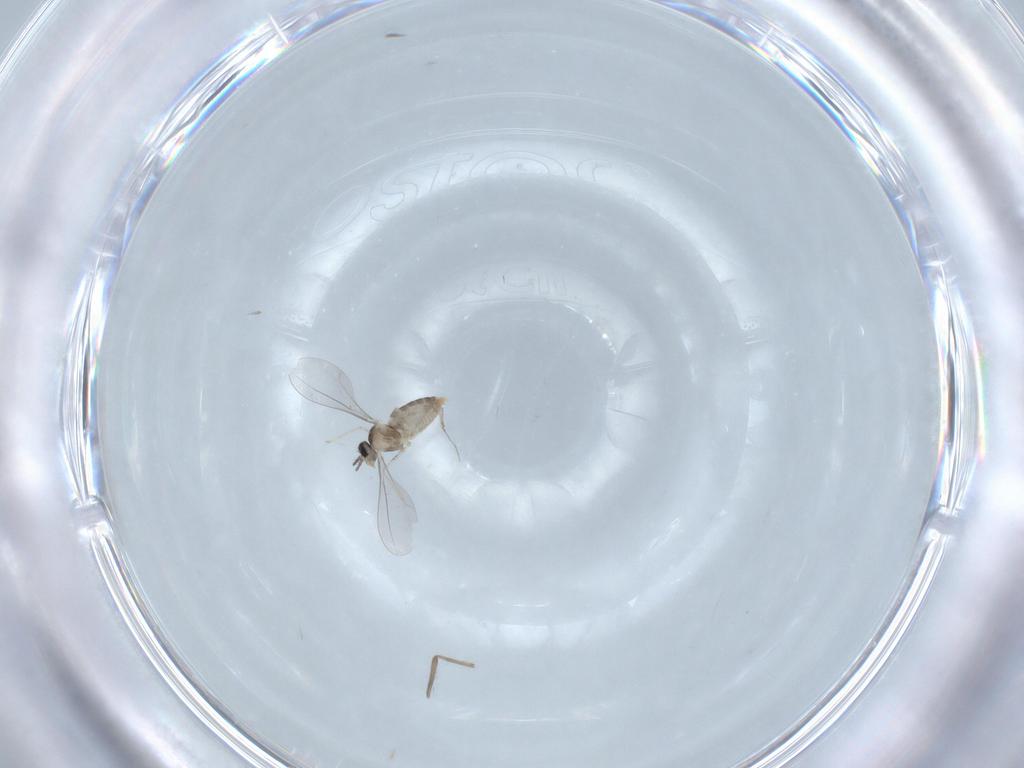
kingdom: Animalia
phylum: Arthropoda
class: Insecta
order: Diptera
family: Cecidomyiidae
